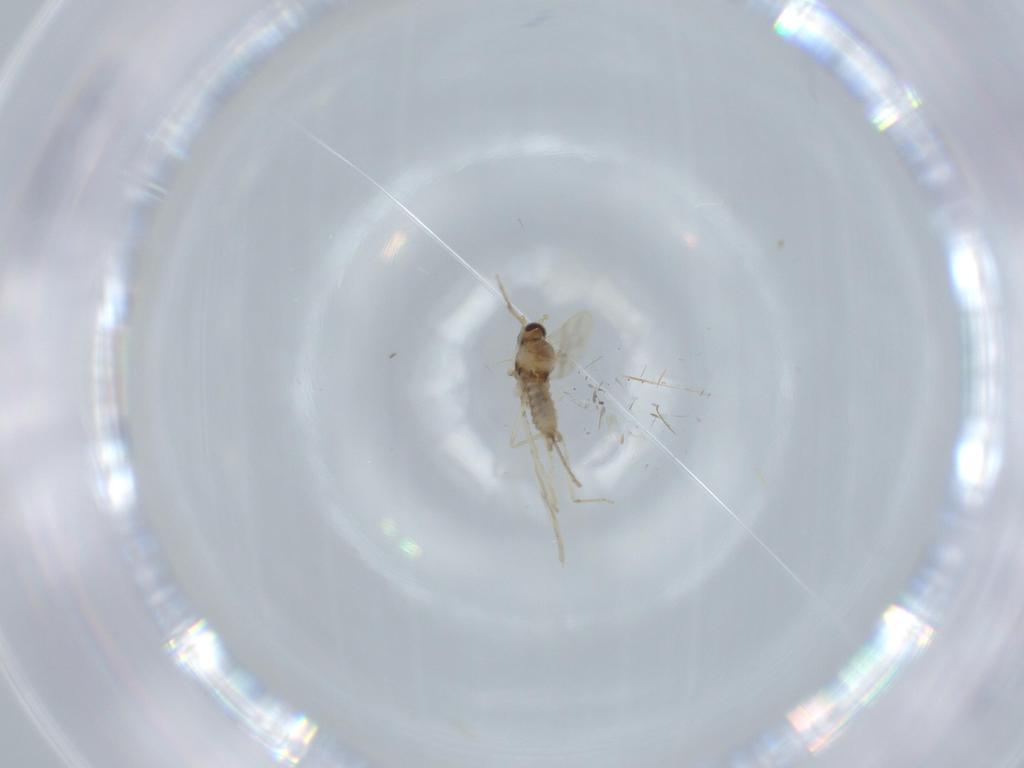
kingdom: Animalia
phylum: Arthropoda
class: Insecta
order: Diptera
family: Cecidomyiidae
